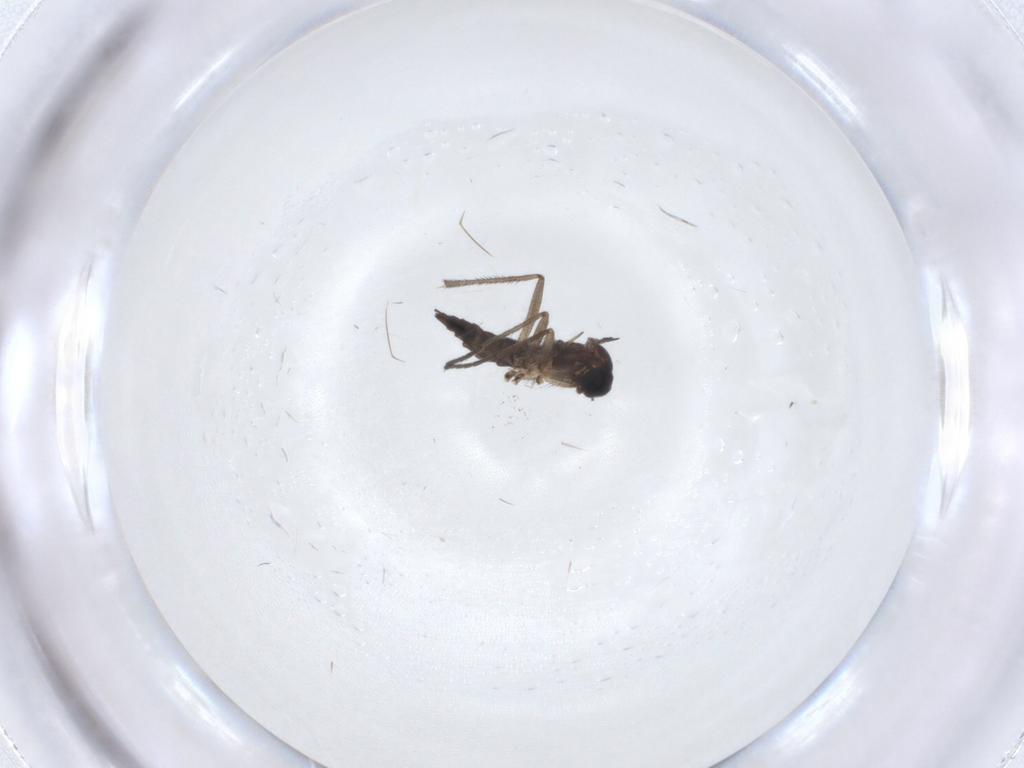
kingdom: Animalia
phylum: Arthropoda
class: Insecta
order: Diptera
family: Sciaridae
